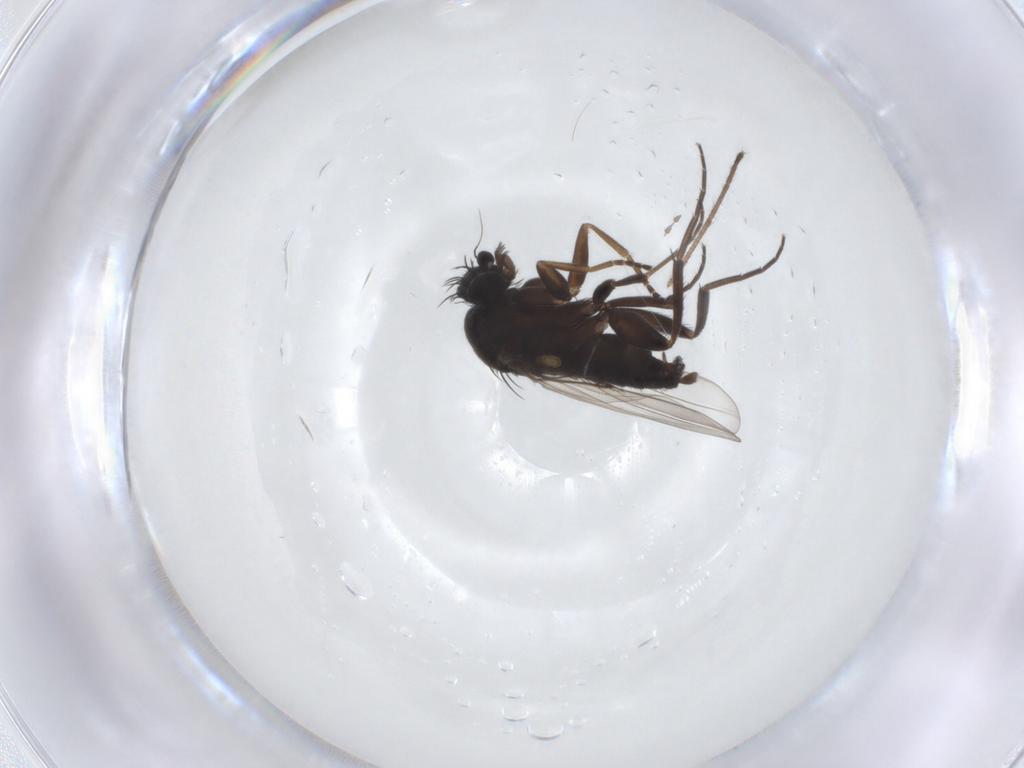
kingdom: Animalia
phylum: Arthropoda
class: Insecta
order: Diptera
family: Phoridae
